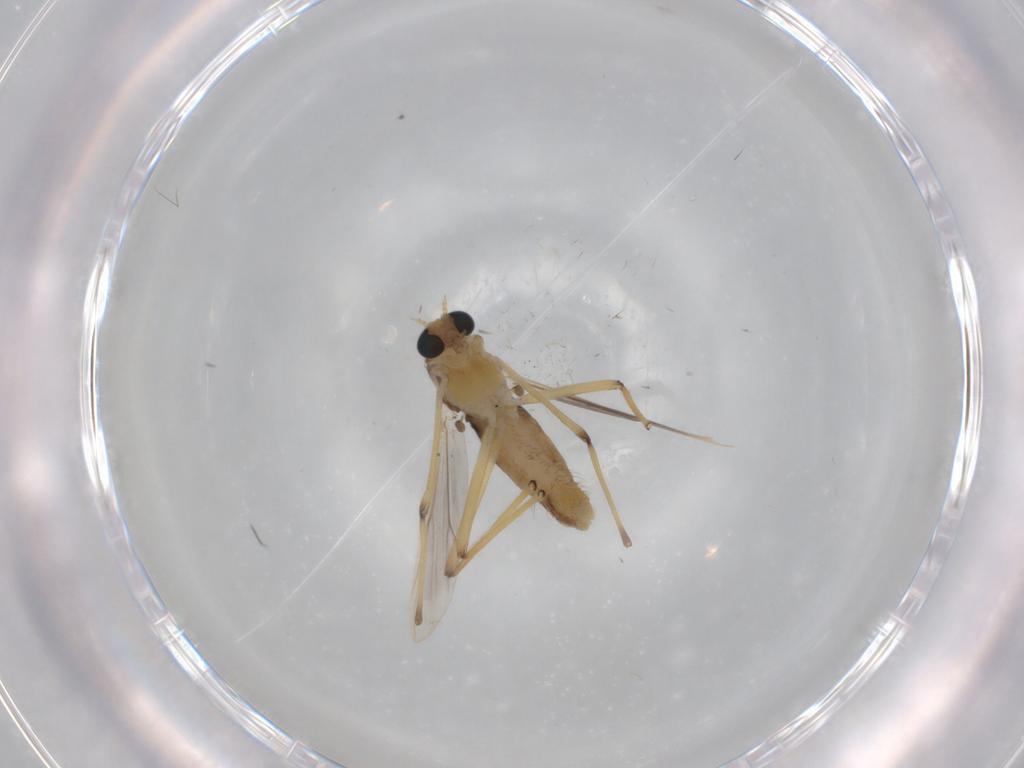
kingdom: Animalia
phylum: Arthropoda
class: Insecta
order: Diptera
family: Chironomidae
